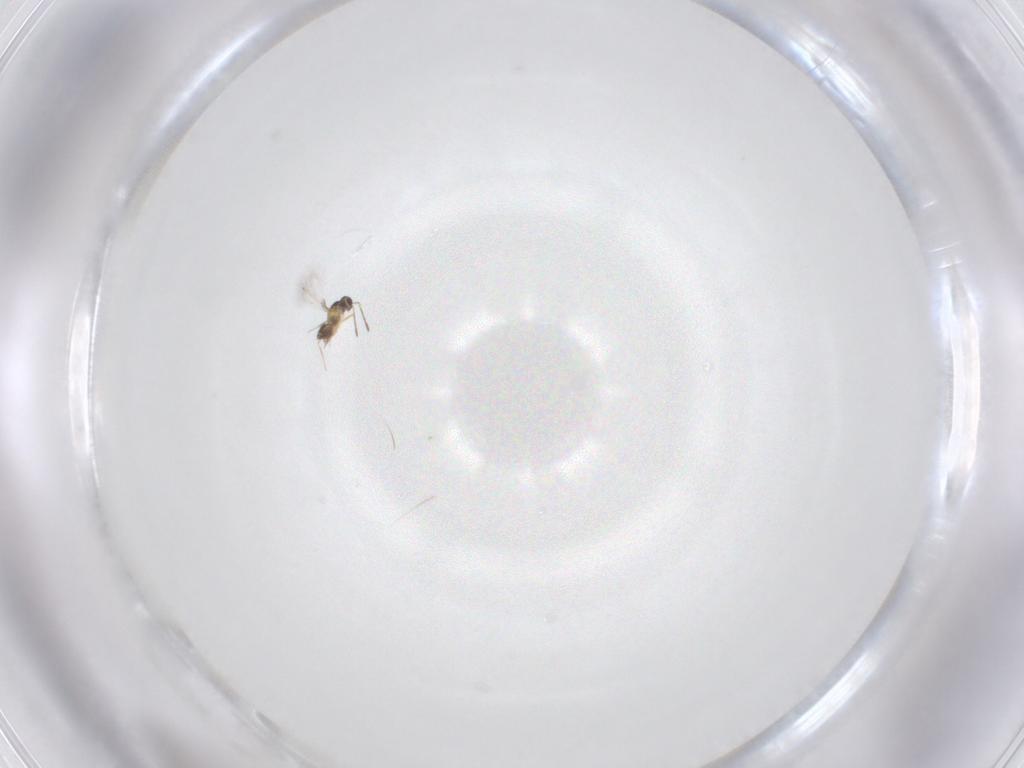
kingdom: Animalia
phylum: Arthropoda
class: Insecta
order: Hymenoptera
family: Mymaridae
